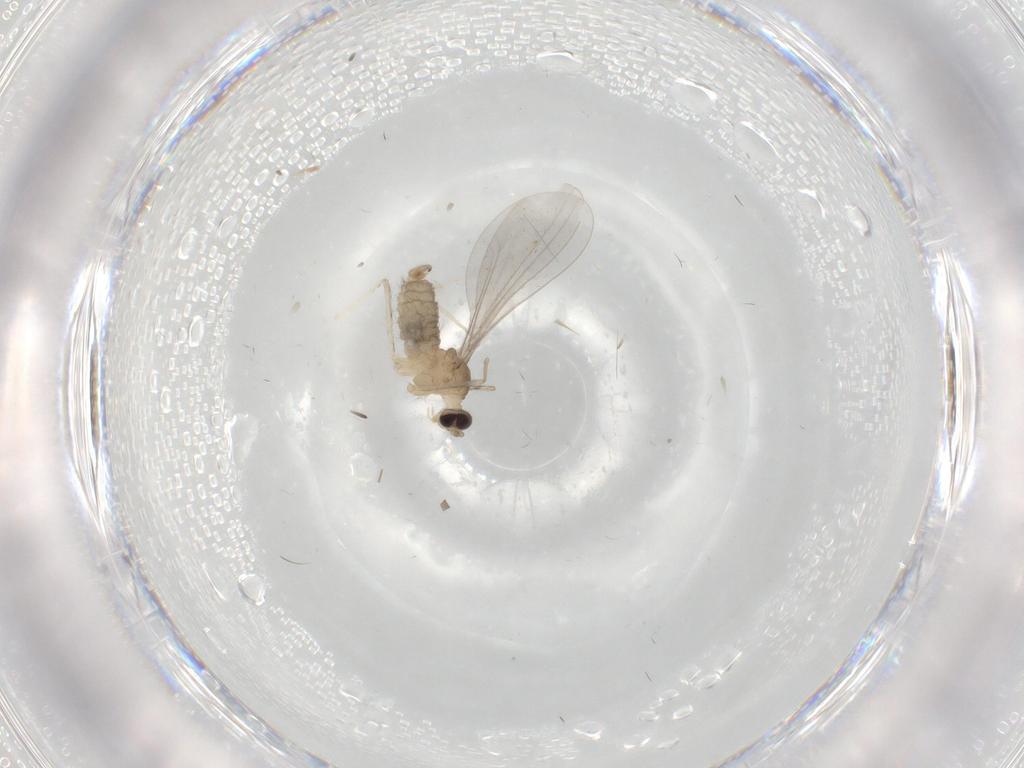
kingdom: Animalia
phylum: Arthropoda
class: Insecta
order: Diptera
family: Cecidomyiidae
